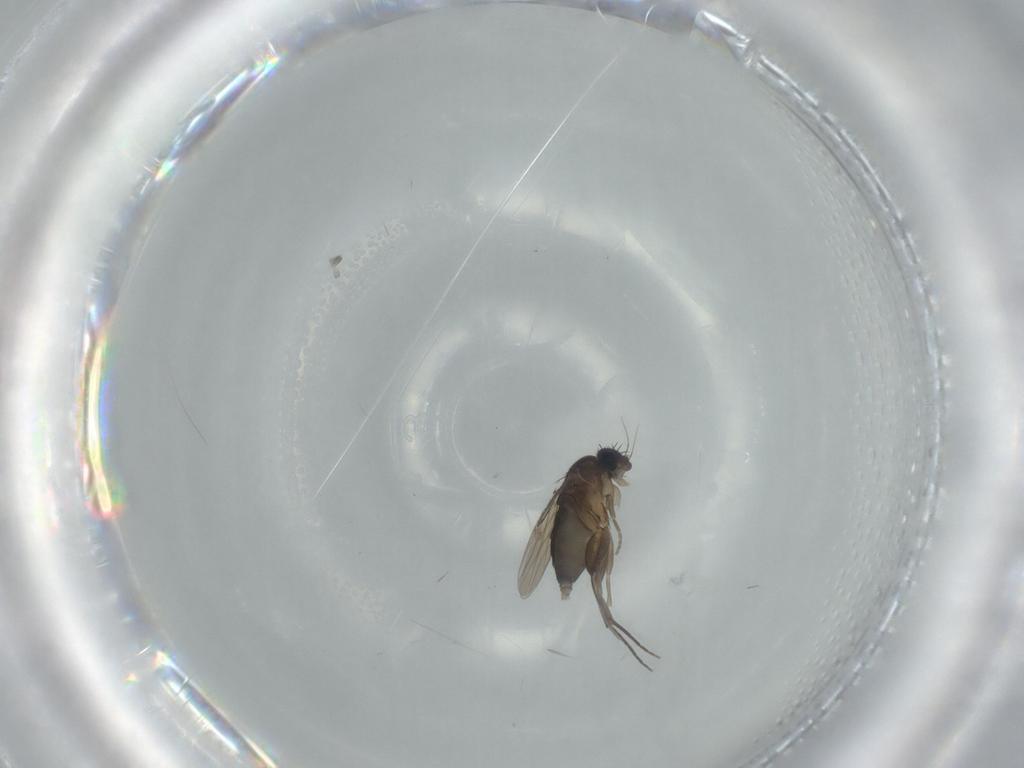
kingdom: Animalia
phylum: Arthropoda
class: Insecta
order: Diptera
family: Phoridae
